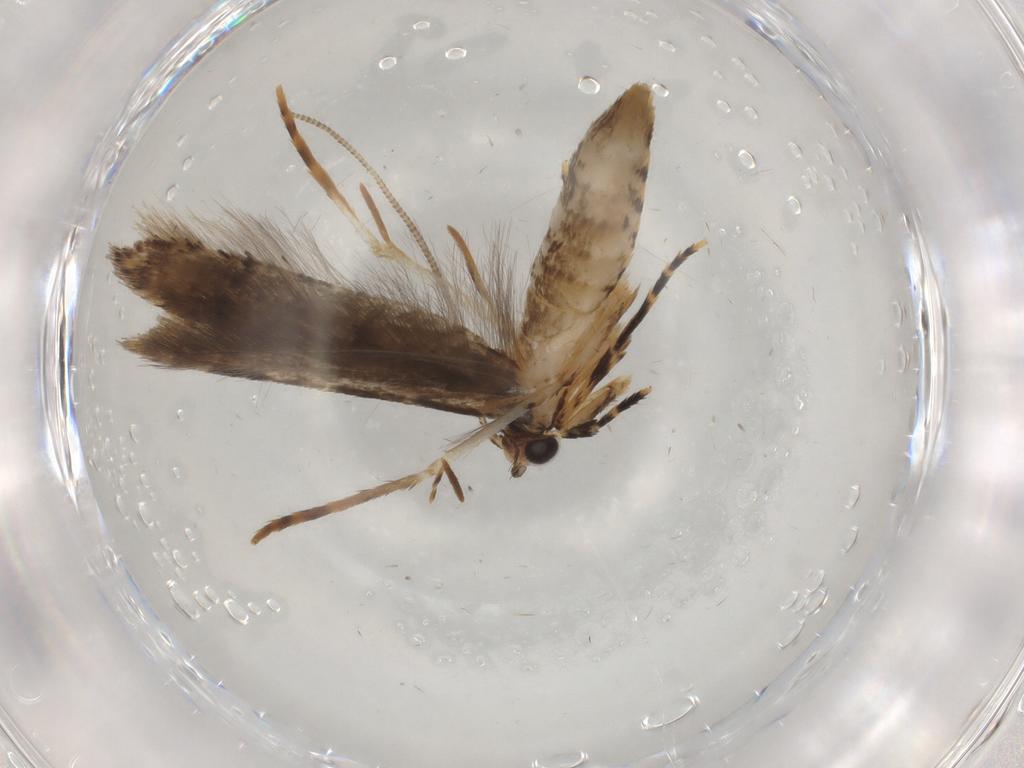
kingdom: Animalia
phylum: Arthropoda
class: Insecta
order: Lepidoptera
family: Tineidae
